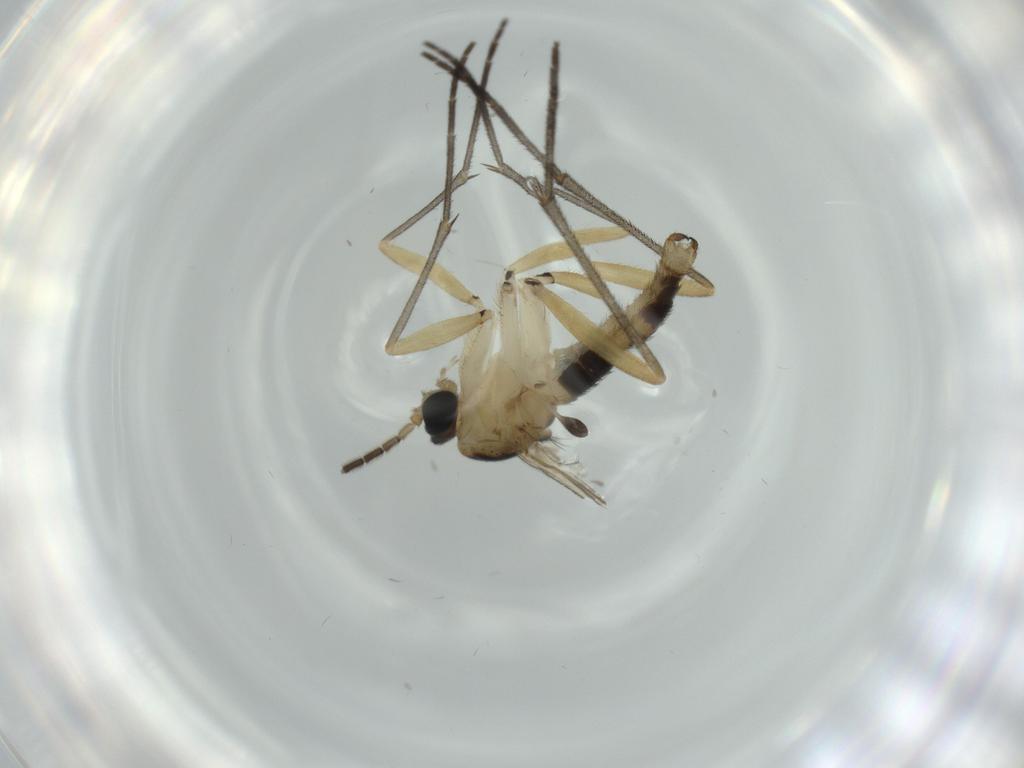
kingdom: Animalia
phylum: Arthropoda
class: Insecta
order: Diptera
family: Sciaridae
